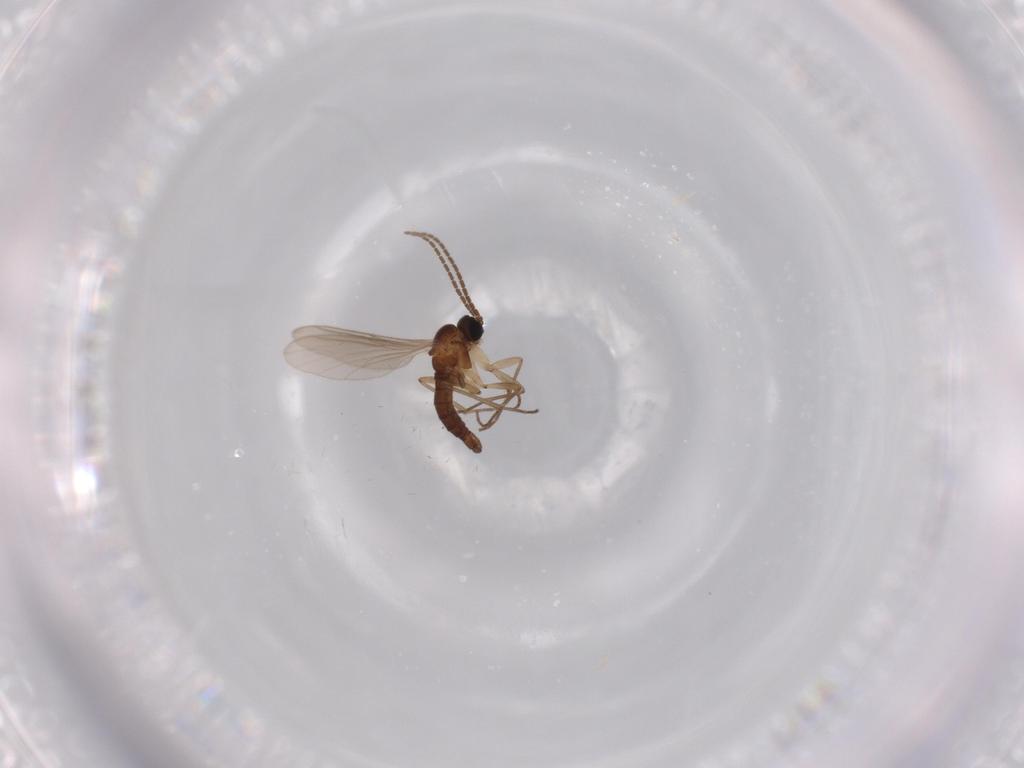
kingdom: Animalia
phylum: Arthropoda
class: Insecta
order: Diptera
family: Sciaridae
